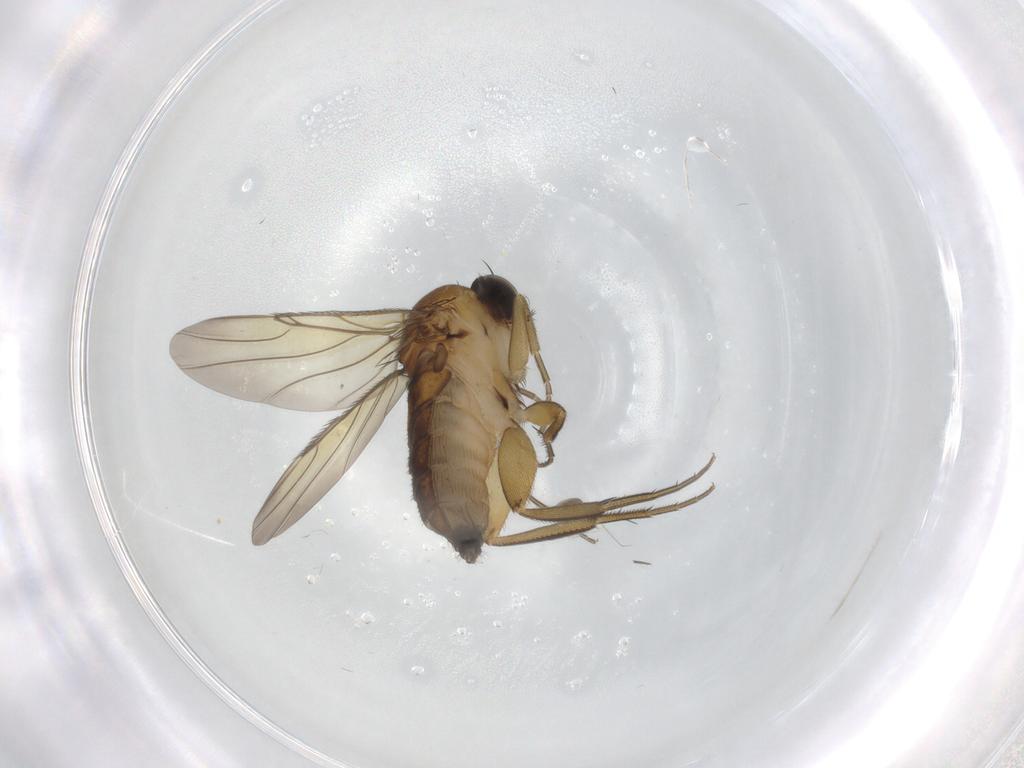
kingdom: Animalia
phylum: Arthropoda
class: Insecta
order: Diptera
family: Phoridae
